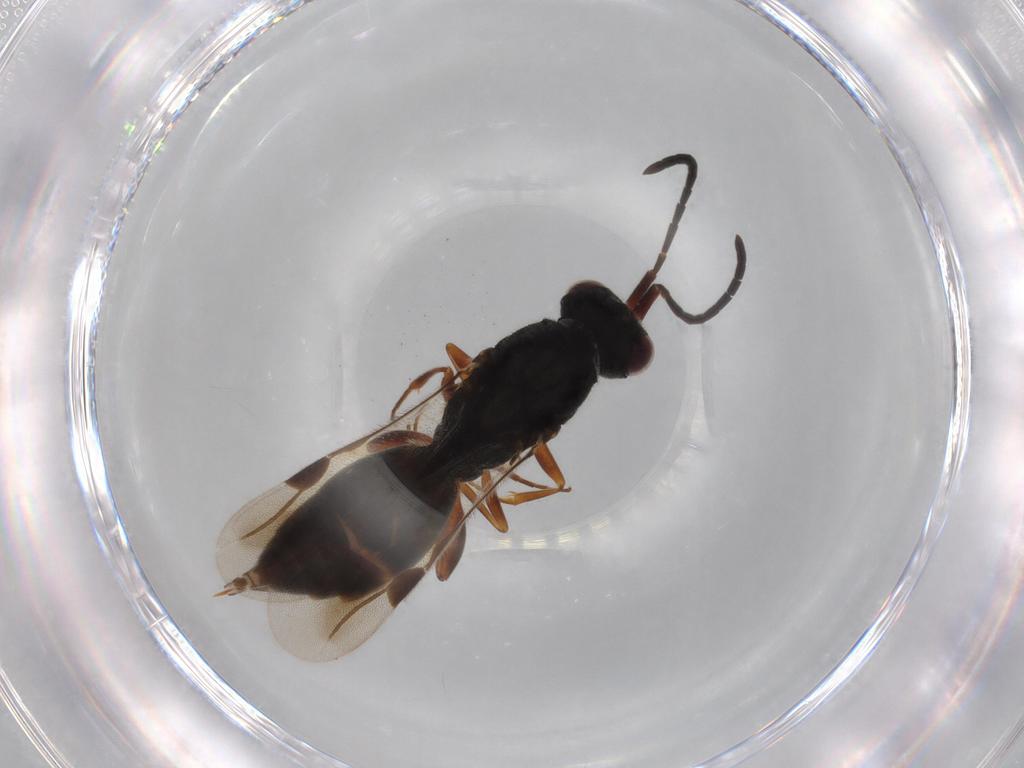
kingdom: Animalia
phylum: Arthropoda
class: Insecta
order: Hymenoptera
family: Megaspilidae
